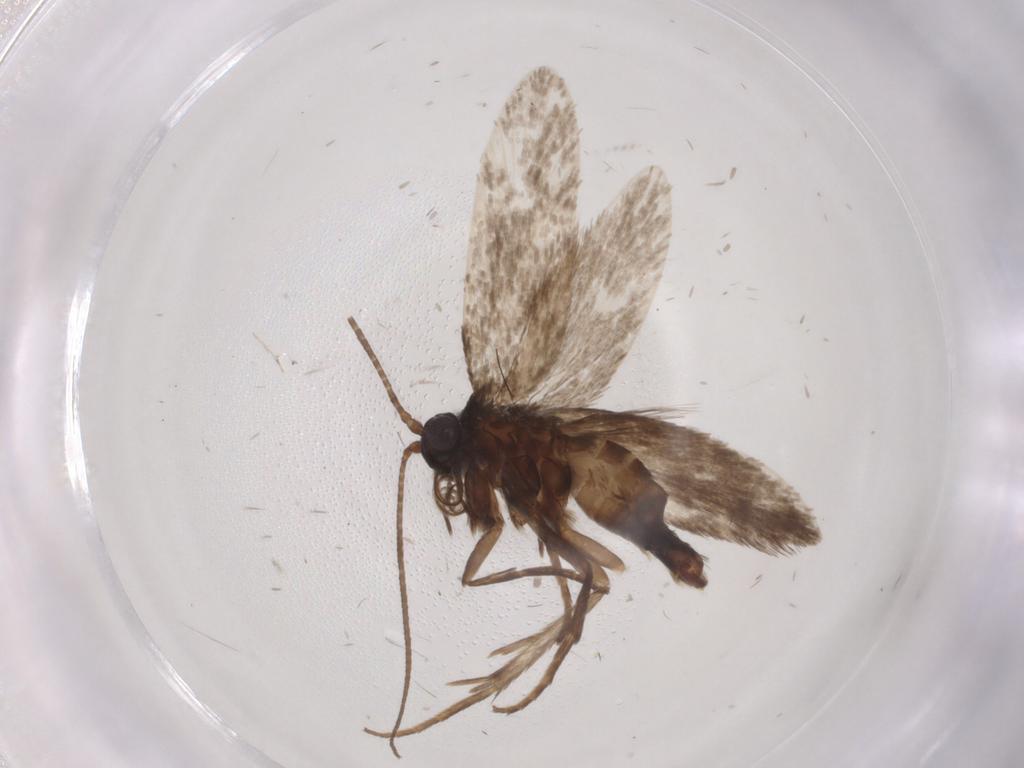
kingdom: Animalia
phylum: Arthropoda
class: Insecta
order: Lepidoptera
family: Adelidae
